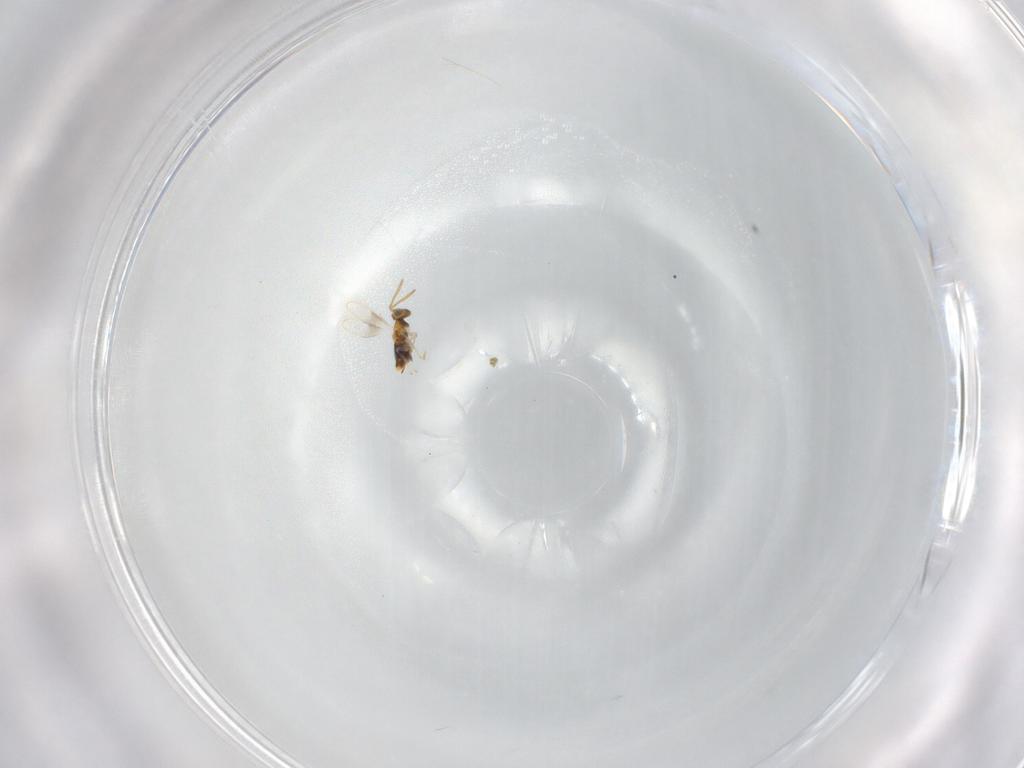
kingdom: Animalia
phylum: Arthropoda
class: Insecta
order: Hymenoptera
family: Aphelinidae
